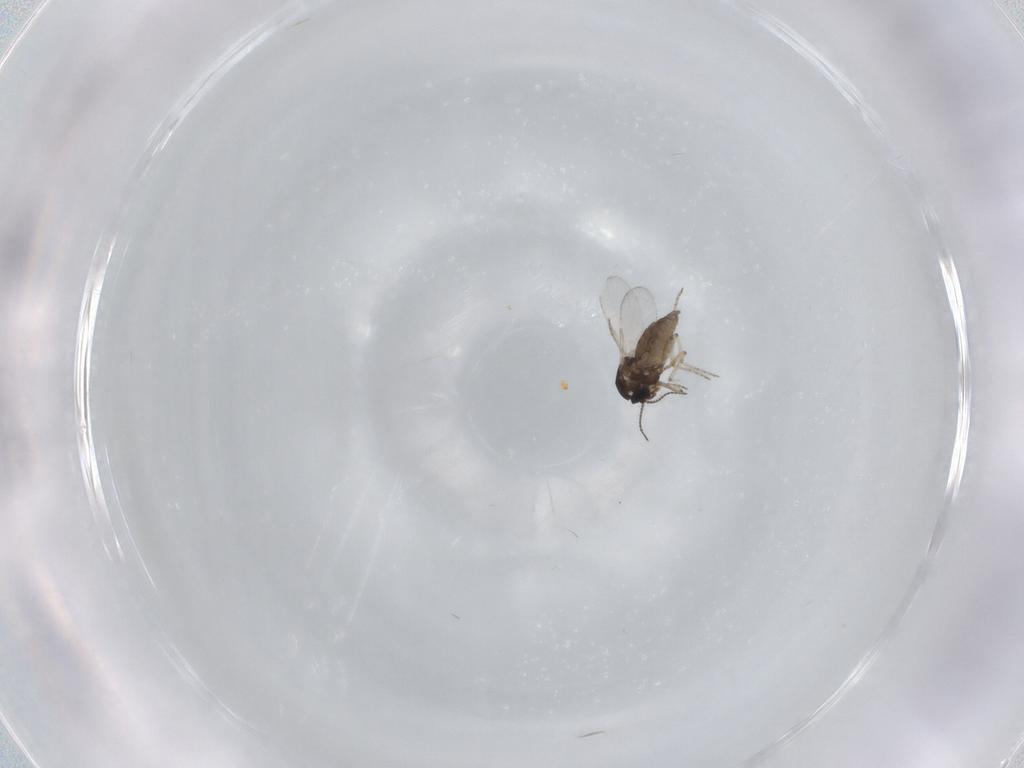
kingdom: Animalia
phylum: Arthropoda
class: Insecta
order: Diptera
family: Ceratopogonidae
